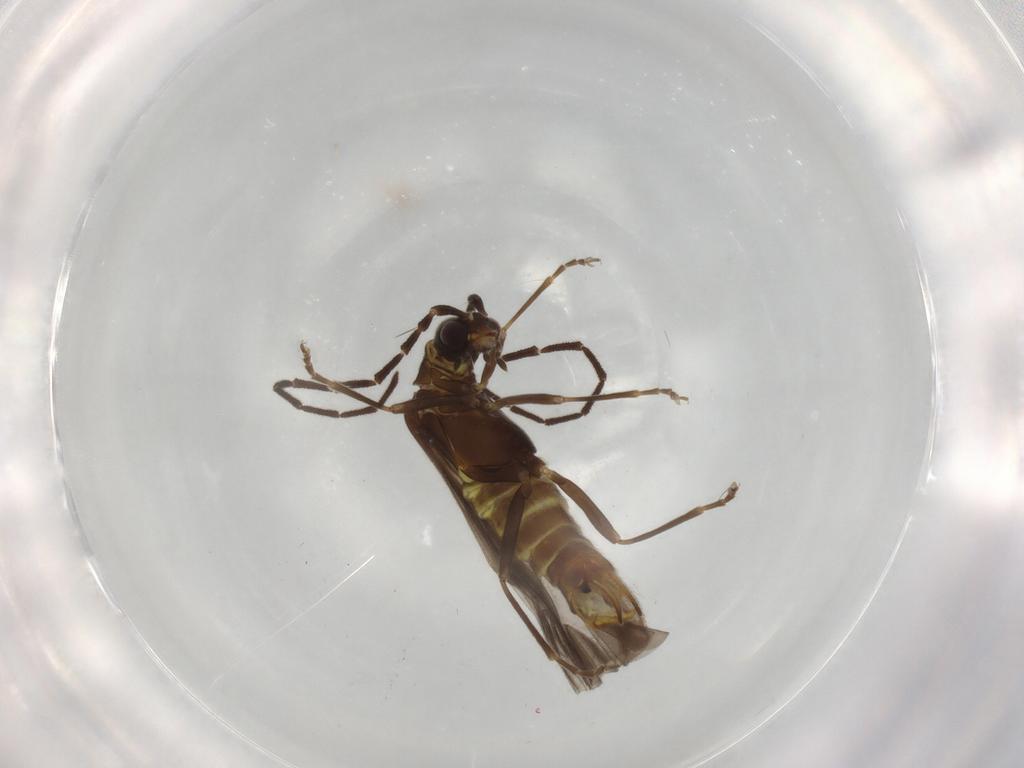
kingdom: Animalia
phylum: Arthropoda
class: Insecta
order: Coleoptera
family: Cantharidae
